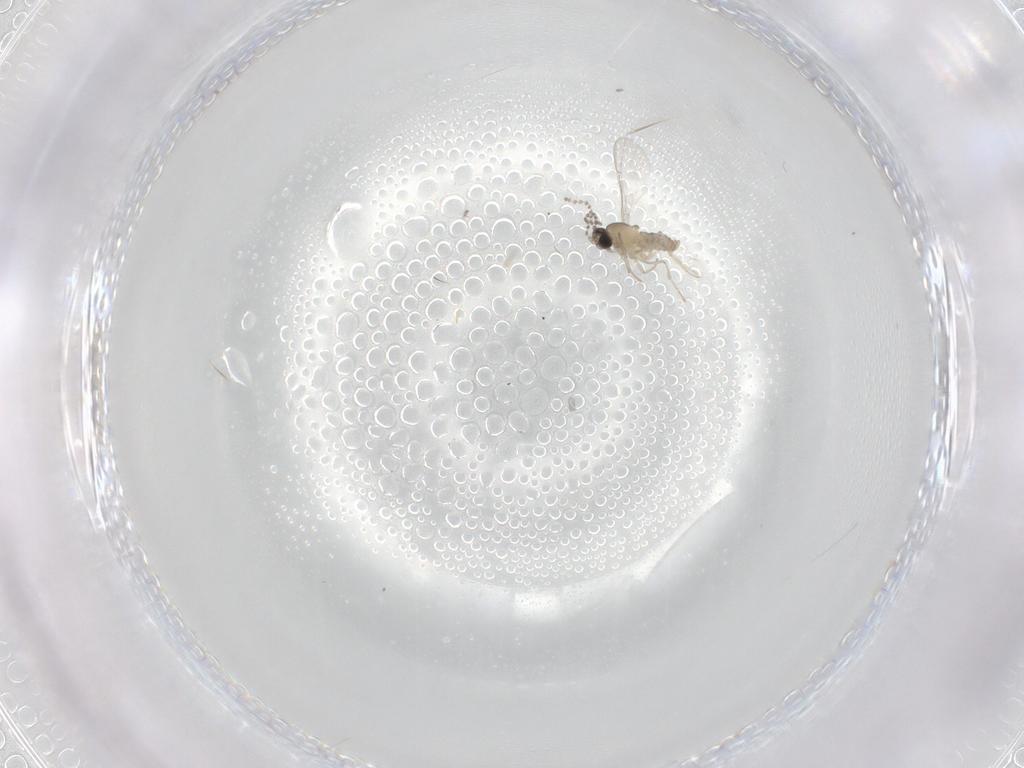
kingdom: Animalia
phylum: Arthropoda
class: Insecta
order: Diptera
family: Cecidomyiidae
